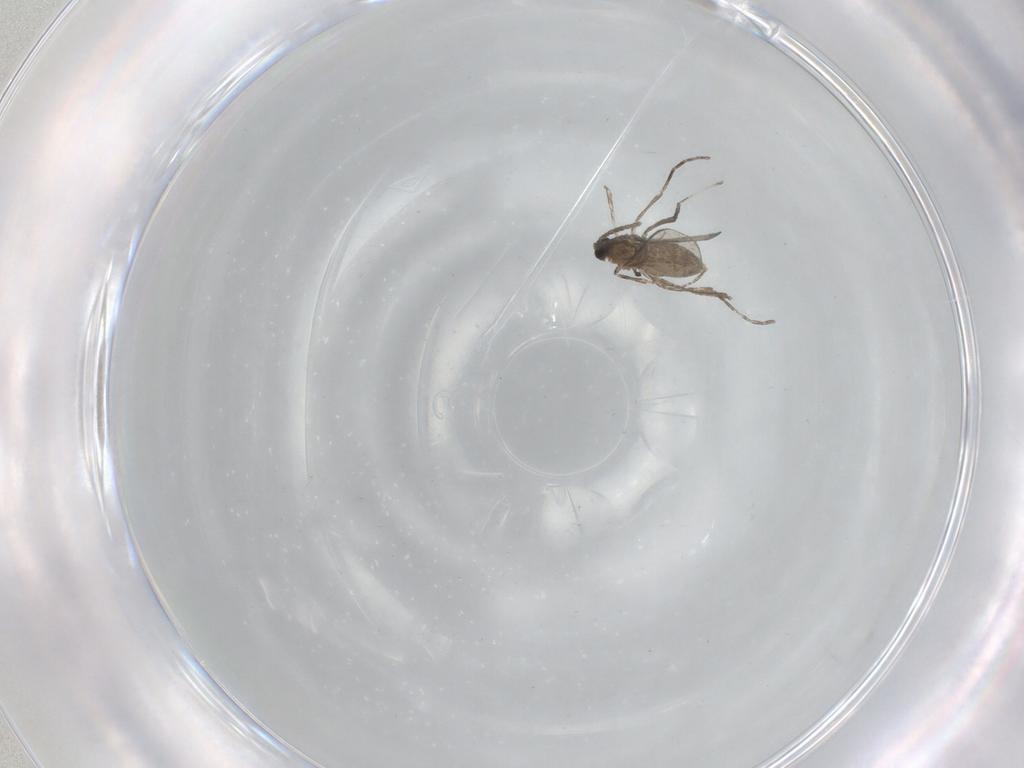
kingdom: Animalia
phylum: Arthropoda
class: Insecta
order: Diptera
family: Cecidomyiidae
